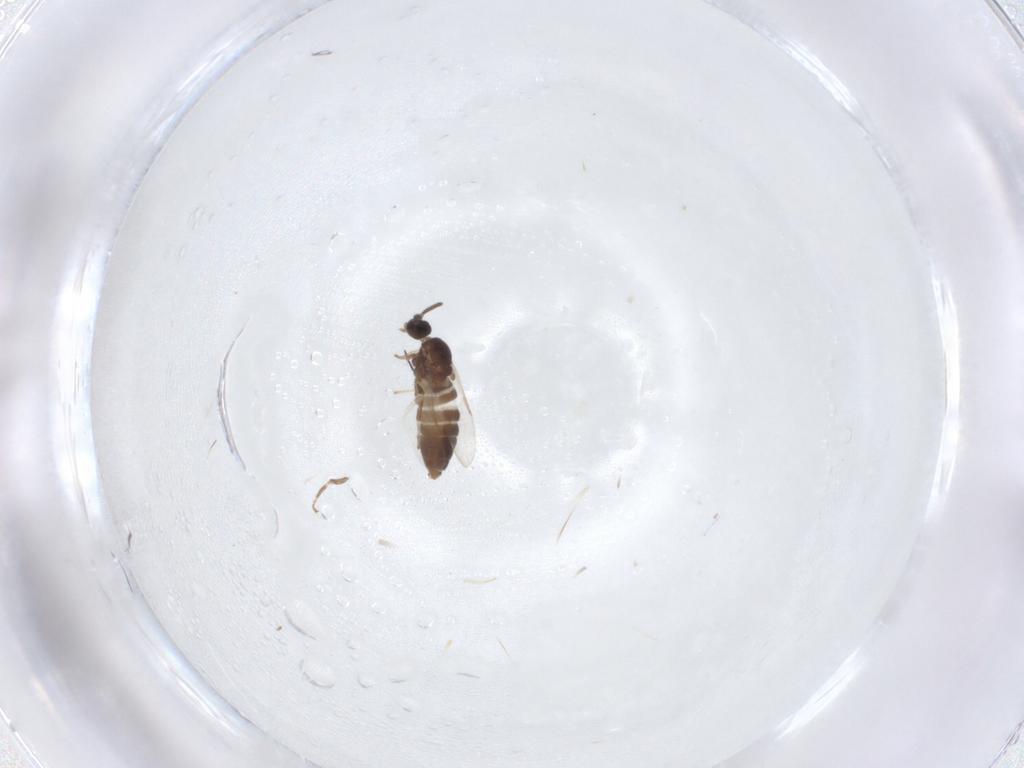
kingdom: Animalia
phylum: Arthropoda
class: Insecta
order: Diptera
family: Scatopsidae
